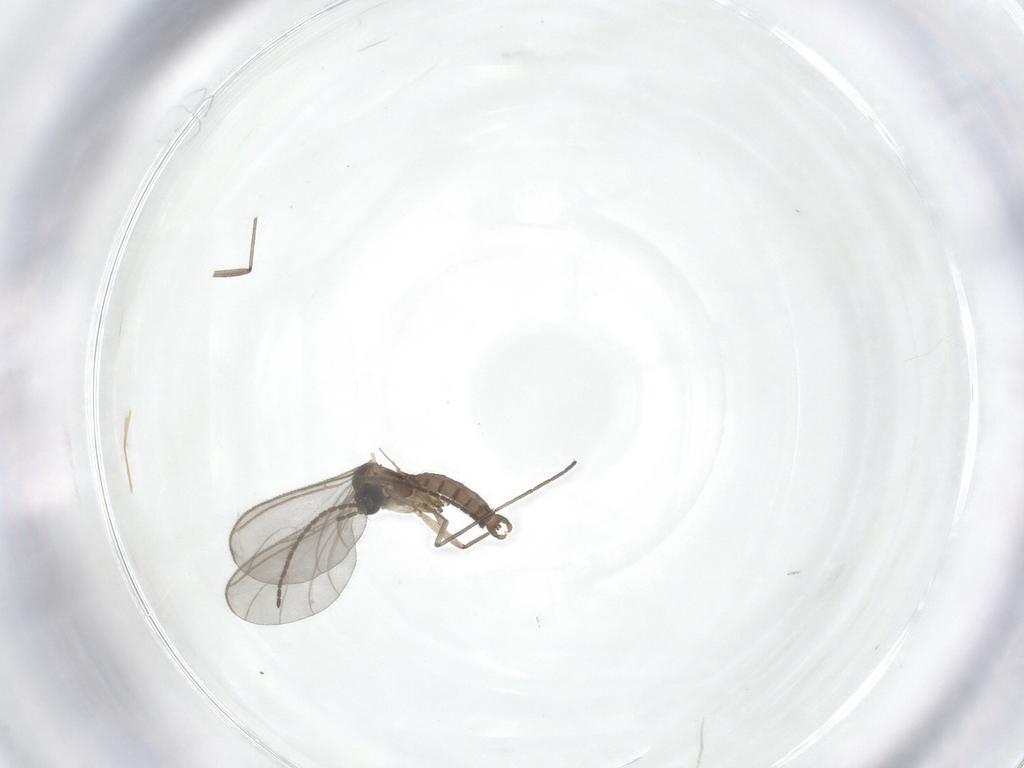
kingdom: Animalia
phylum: Arthropoda
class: Insecta
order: Diptera
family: Sciaridae
